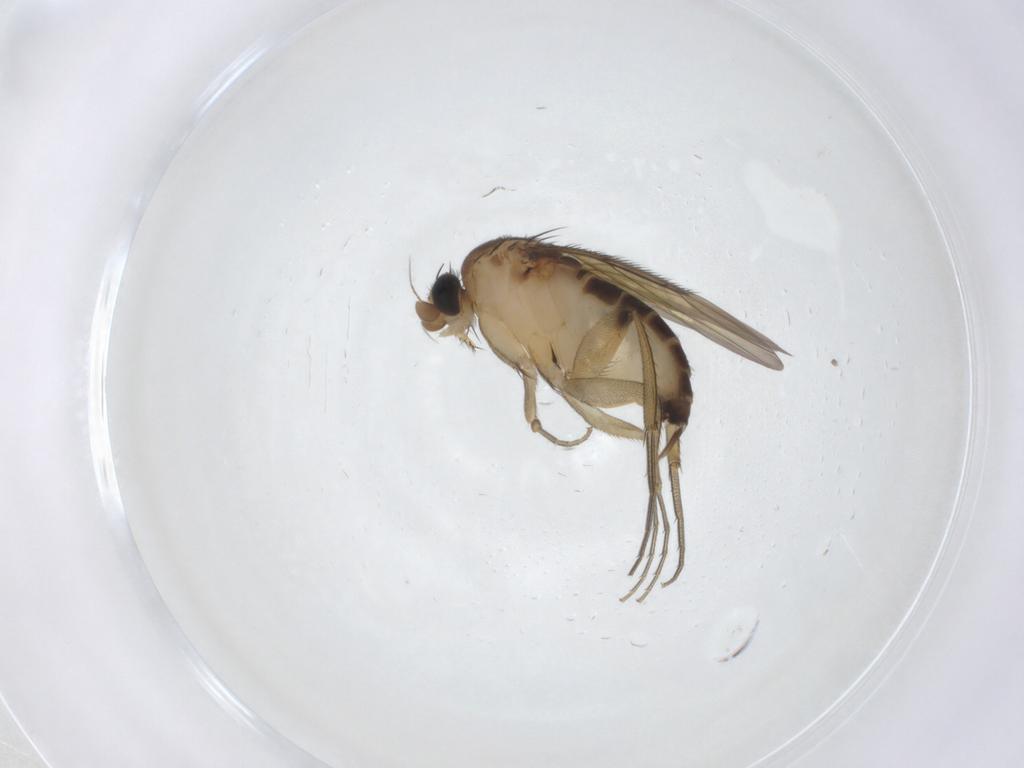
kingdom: Animalia
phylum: Arthropoda
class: Insecta
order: Diptera
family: Phoridae
